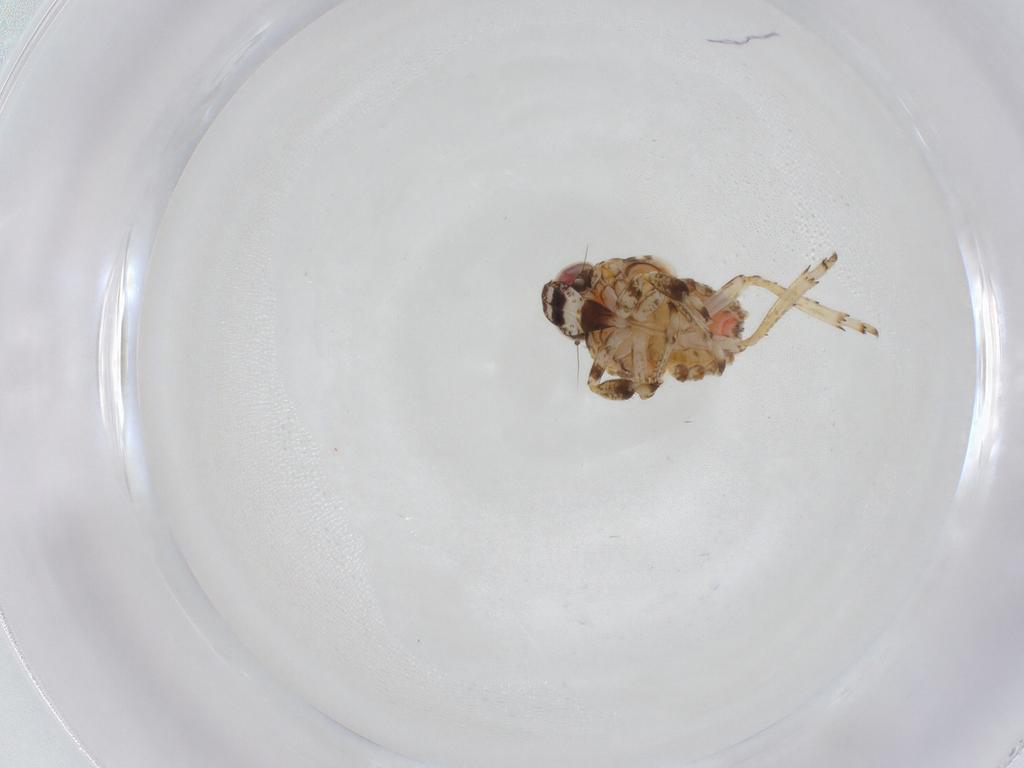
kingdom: Animalia
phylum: Arthropoda
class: Insecta
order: Hemiptera
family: Issidae
